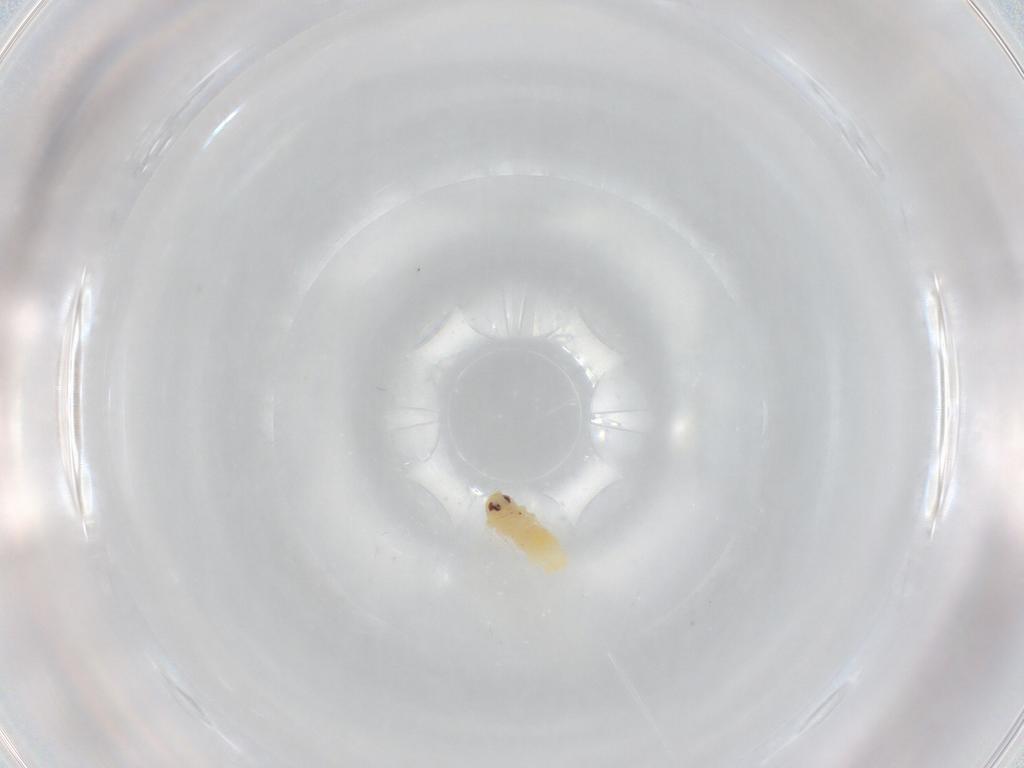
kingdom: Animalia
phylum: Arthropoda
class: Insecta
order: Hemiptera
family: Aleyrodidae
